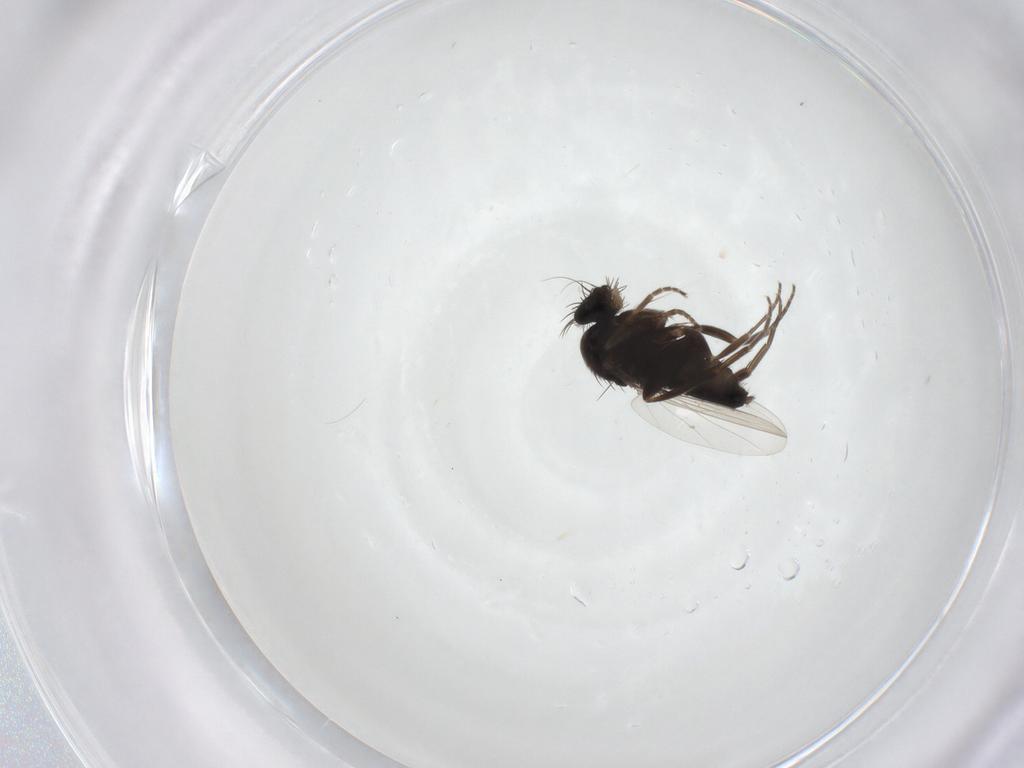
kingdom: Animalia
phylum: Arthropoda
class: Insecta
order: Diptera
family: Phoridae
